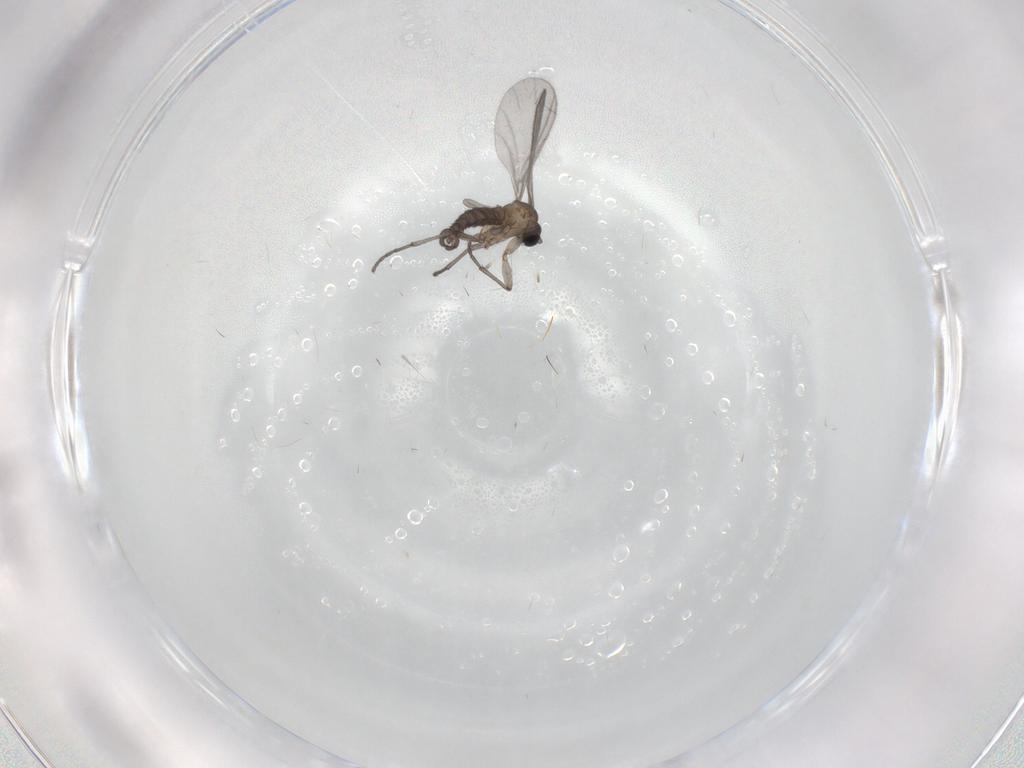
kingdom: Animalia
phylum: Arthropoda
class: Insecta
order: Diptera
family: Sciaridae
